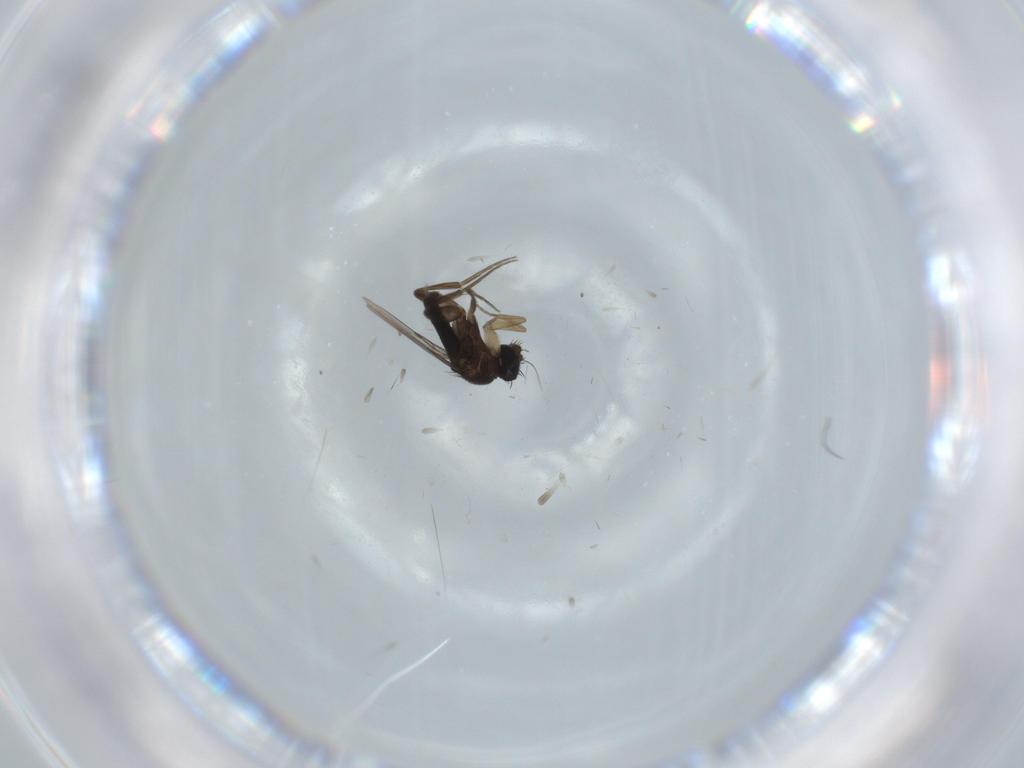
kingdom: Animalia
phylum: Arthropoda
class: Insecta
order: Diptera
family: Phoridae
